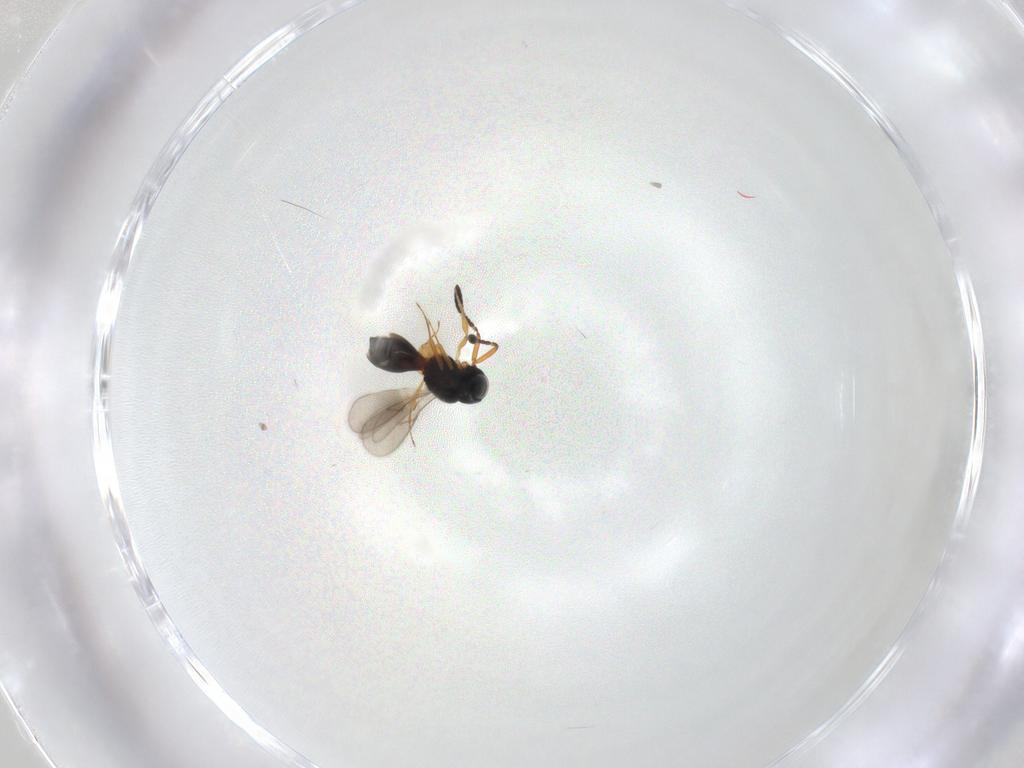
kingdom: Animalia
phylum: Arthropoda
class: Insecta
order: Hymenoptera
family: Scelionidae
